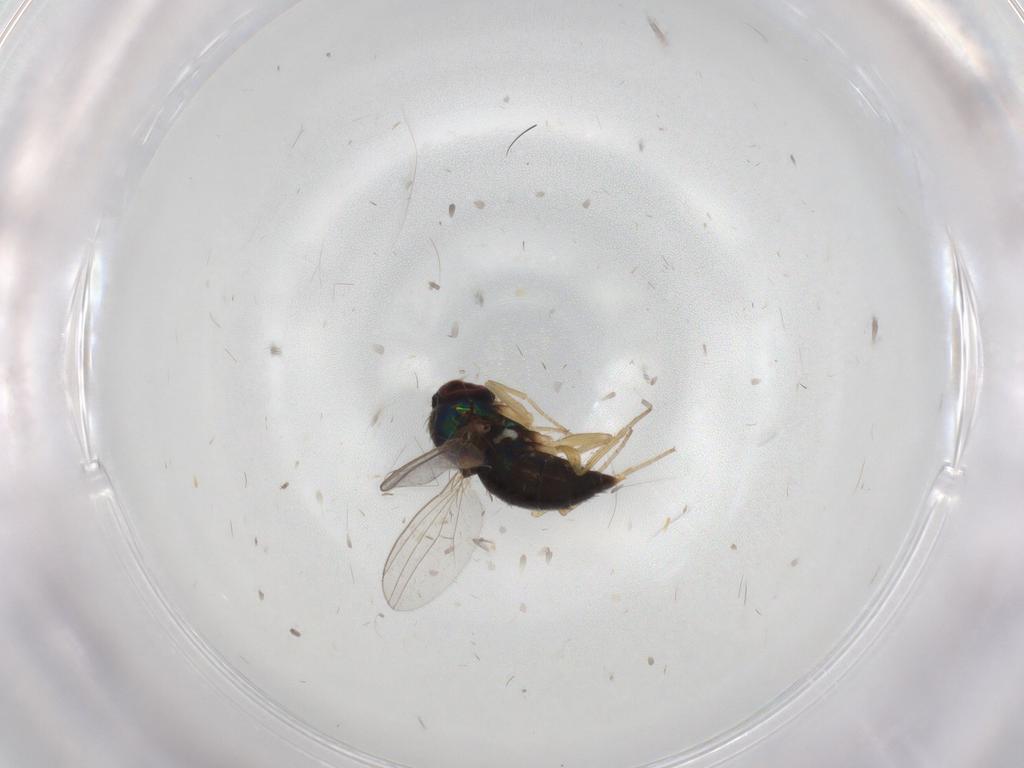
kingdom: Animalia
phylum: Arthropoda
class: Insecta
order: Diptera
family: Dolichopodidae
